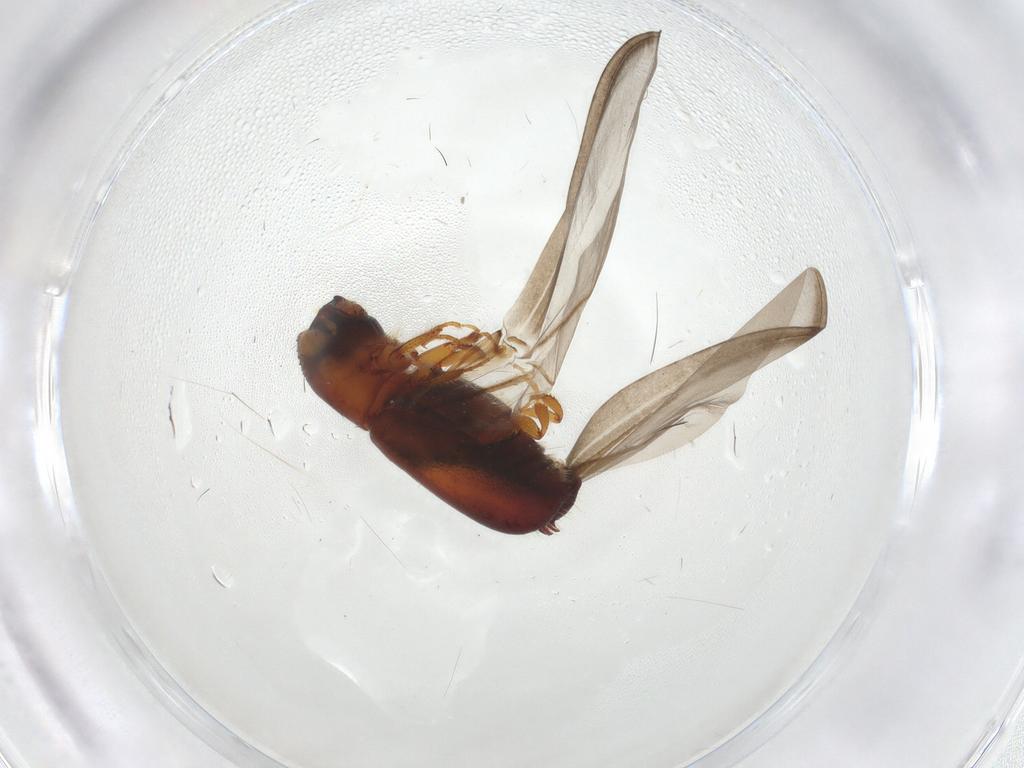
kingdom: Animalia
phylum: Arthropoda
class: Insecta
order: Coleoptera
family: Curculionidae
